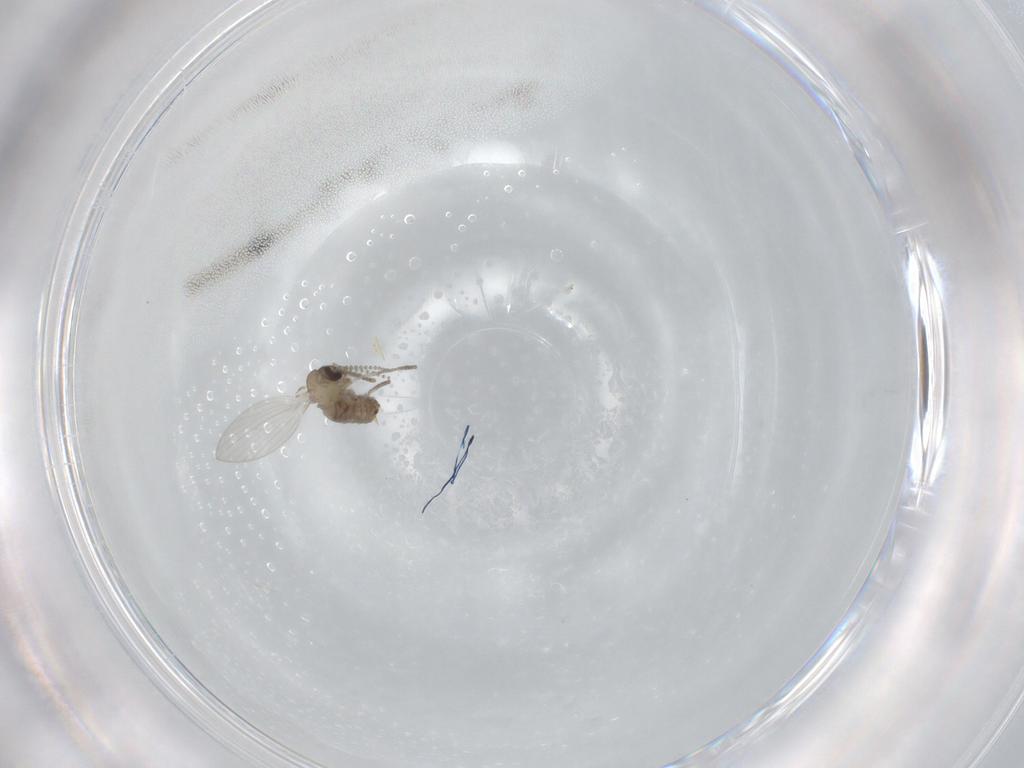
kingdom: Animalia
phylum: Arthropoda
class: Insecta
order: Diptera
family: Psychodidae
